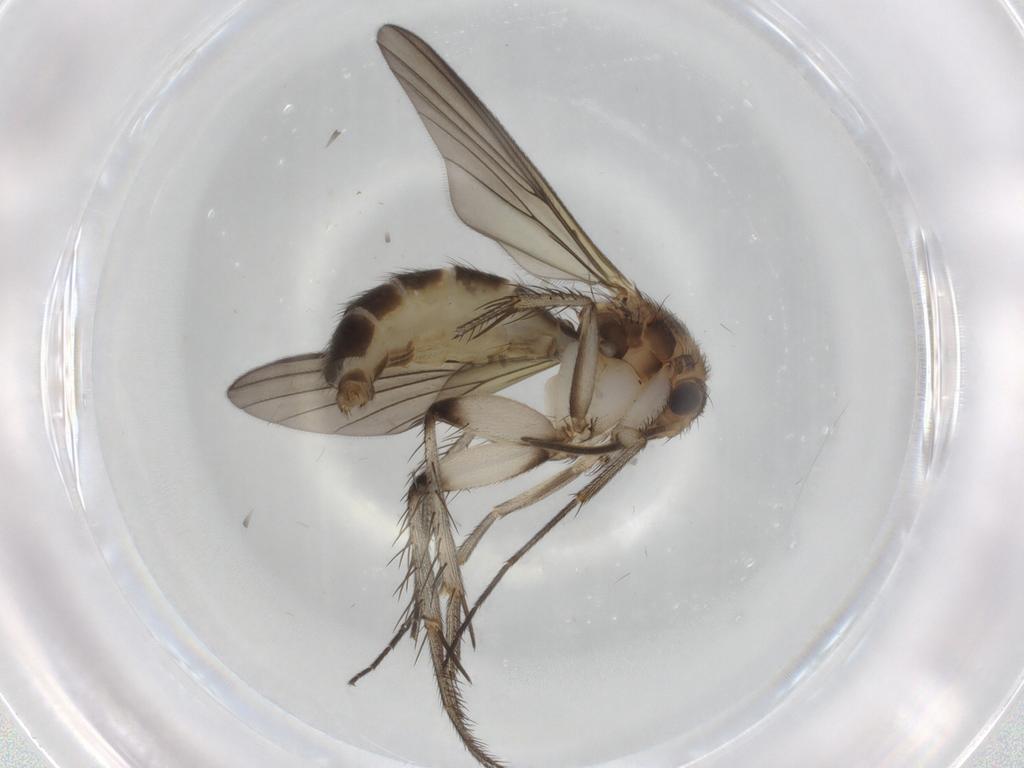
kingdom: Animalia
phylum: Arthropoda
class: Insecta
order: Diptera
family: Mycetophilidae
